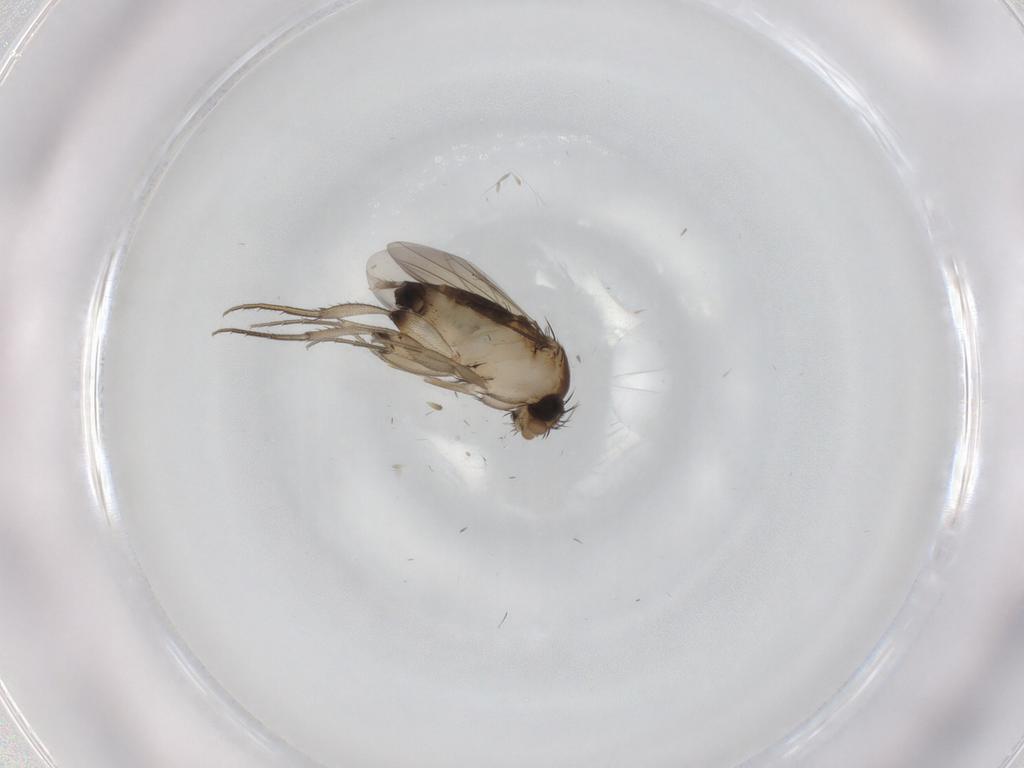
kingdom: Animalia
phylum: Arthropoda
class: Insecta
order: Diptera
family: Phoridae
